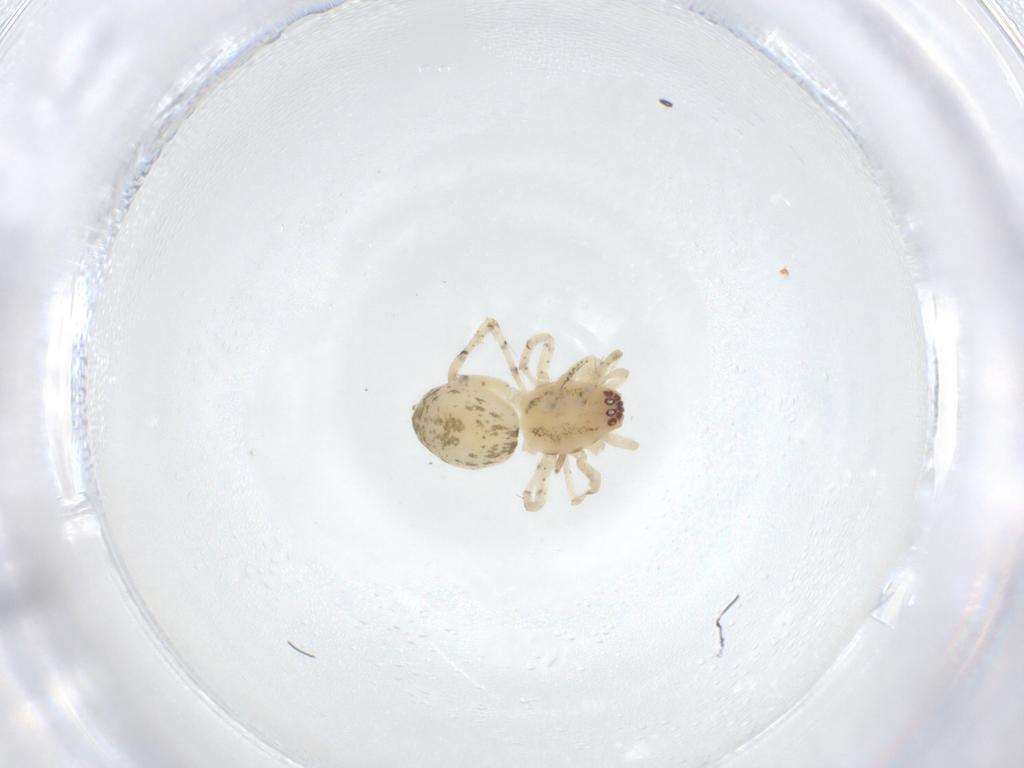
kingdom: Animalia
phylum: Arthropoda
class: Arachnida
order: Araneae
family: Anyphaenidae
